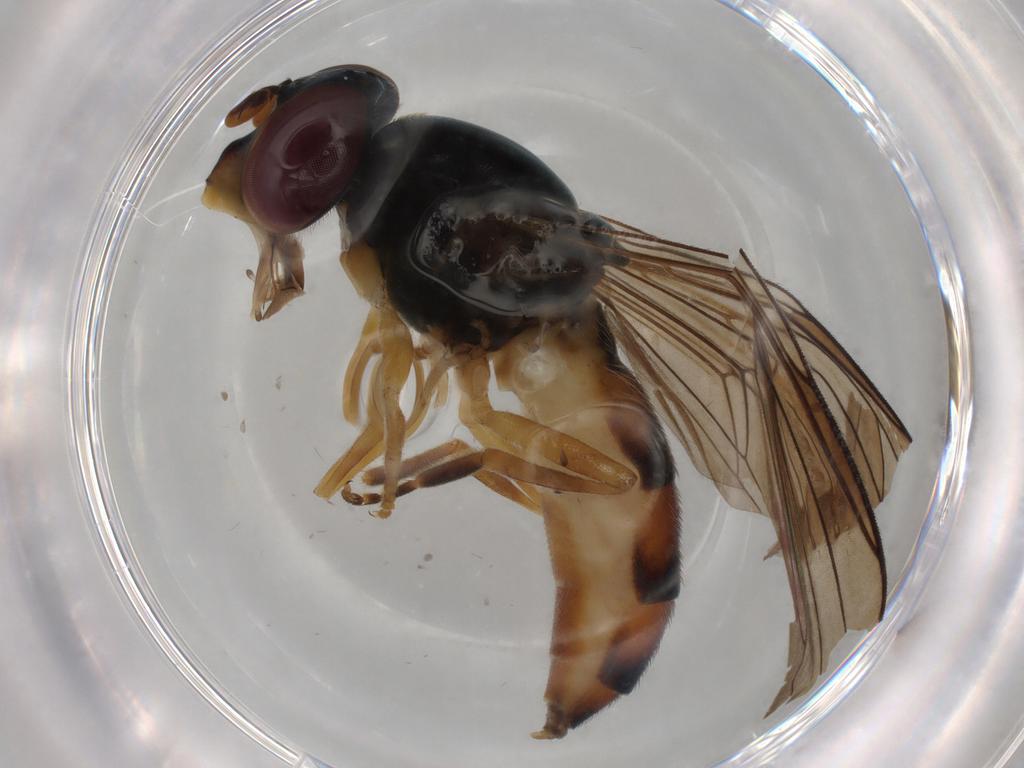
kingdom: Animalia
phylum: Arthropoda
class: Insecta
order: Diptera
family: Syrphidae
